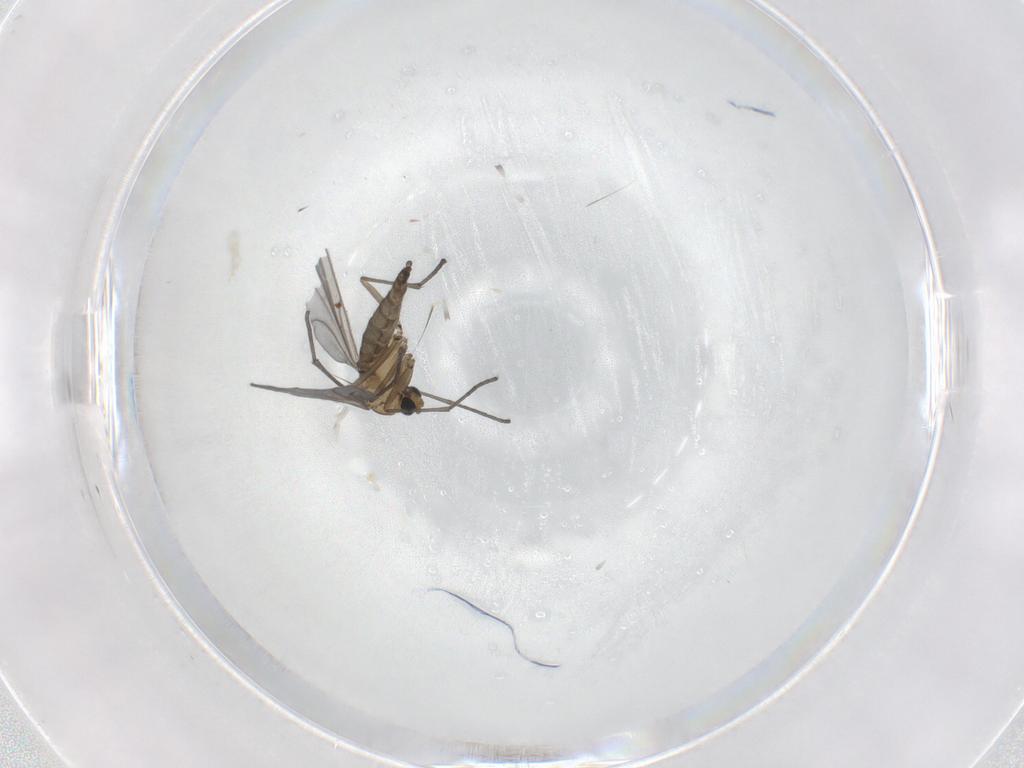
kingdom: Animalia
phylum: Arthropoda
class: Insecta
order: Diptera
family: Sciaridae
